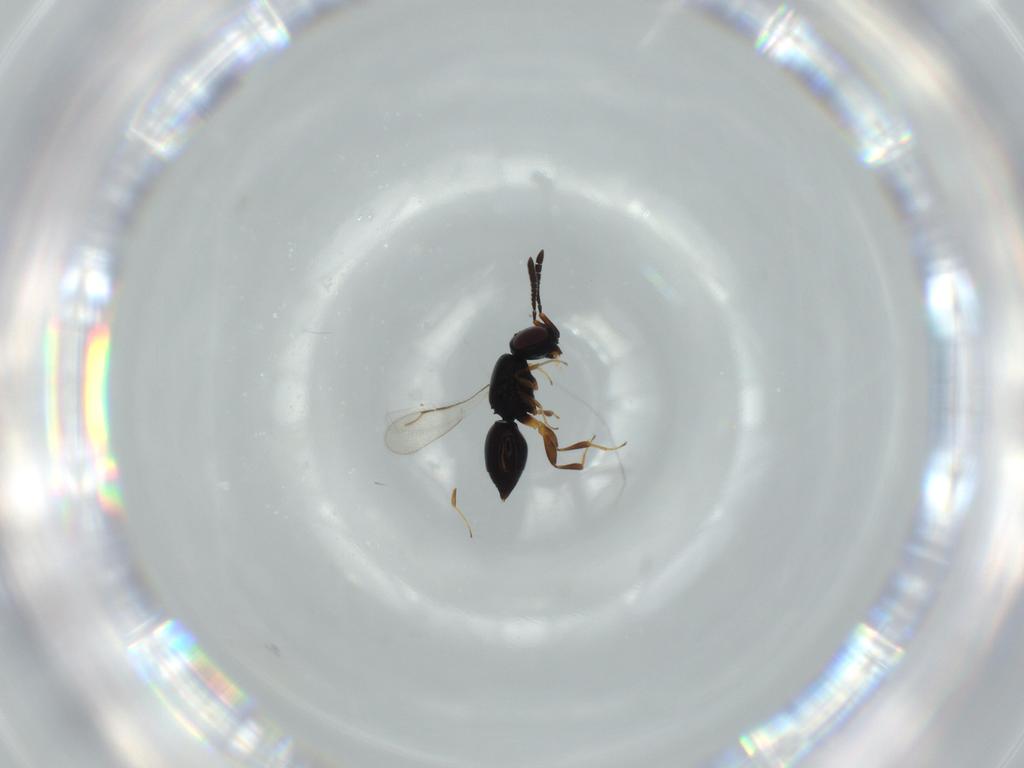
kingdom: Animalia
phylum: Arthropoda
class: Insecta
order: Hymenoptera
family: Ceraphronidae
